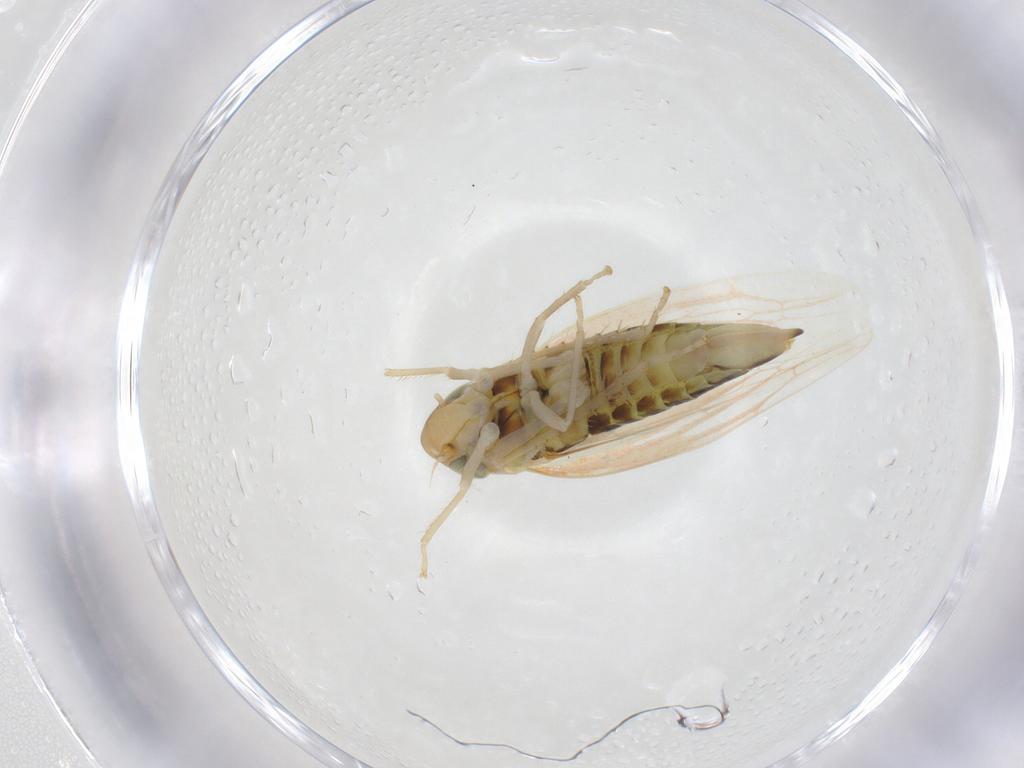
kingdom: Animalia
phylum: Arthropoda
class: Insecta
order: Hemiptera
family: Cicadellidae
